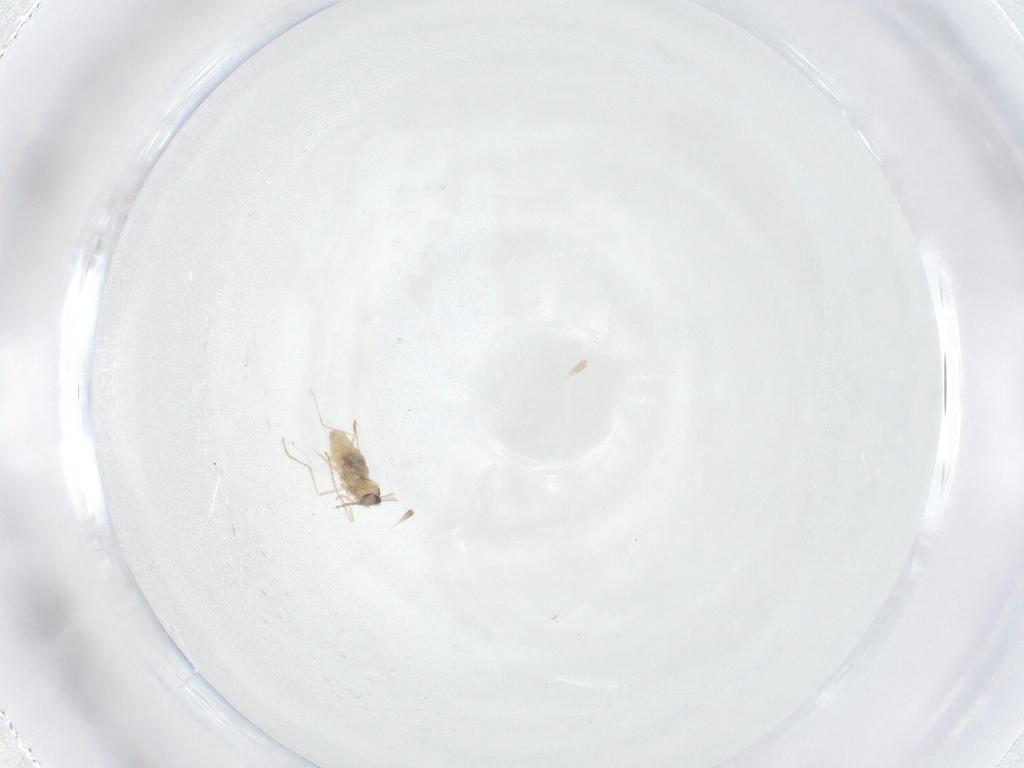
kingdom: Animalia
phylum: Arthropoda
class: Insecta
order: Diptera
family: Cecidomyiidae
